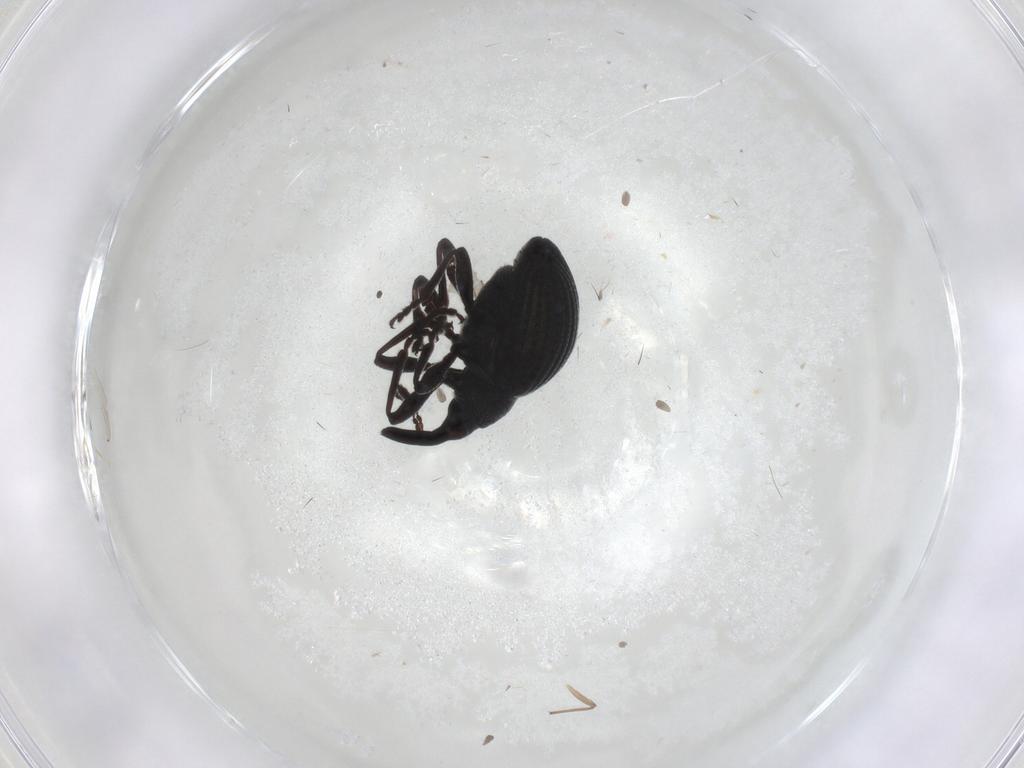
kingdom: Animalia
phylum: Arthropoda
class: Insecta
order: Coleoptera
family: Brentidae
